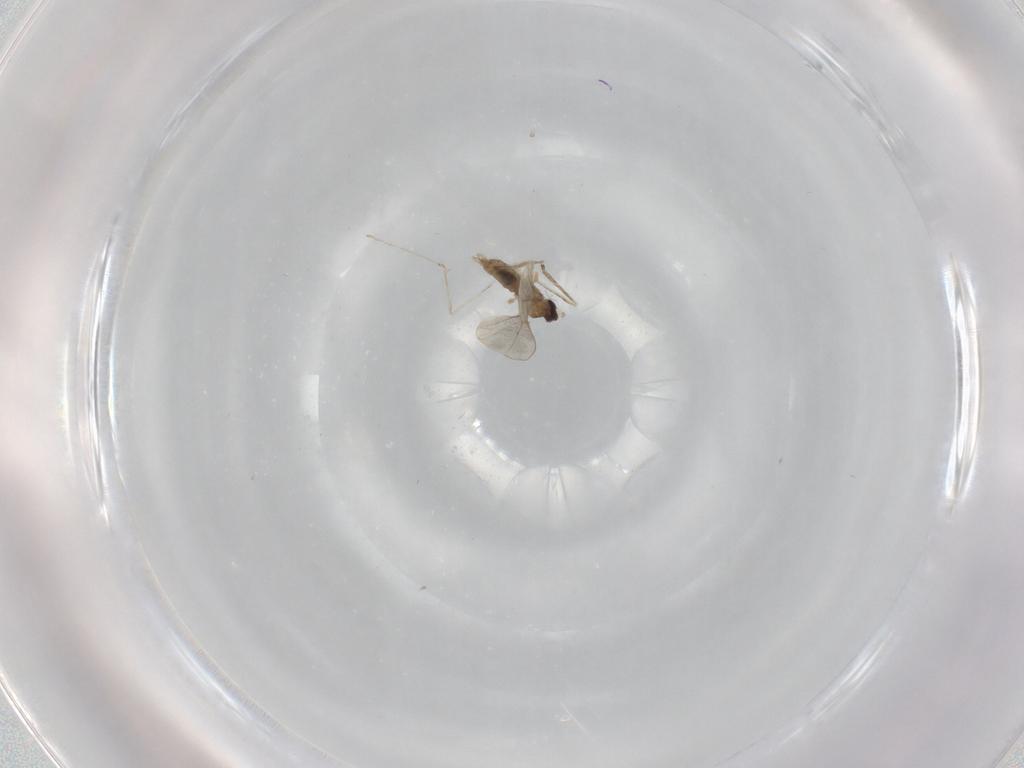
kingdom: Animalia
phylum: Arthropoda
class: Insecta
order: Diptera
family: Cecidomyiidae
